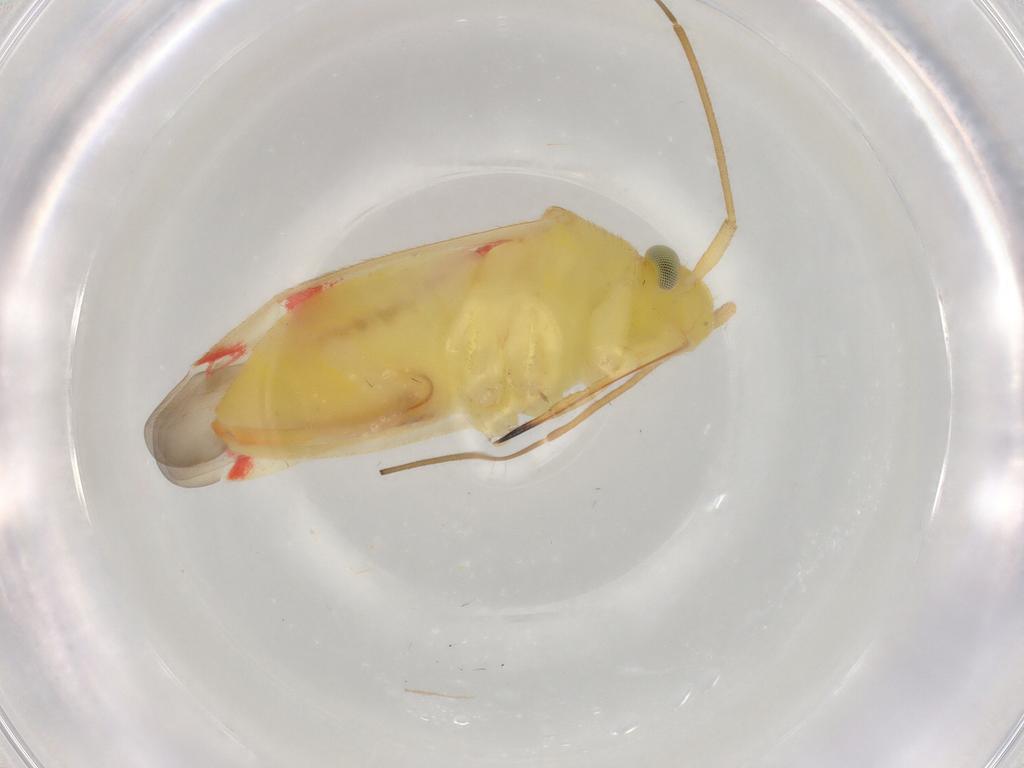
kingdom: Animalia
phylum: Arthropoda
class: Insecta
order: Hemiptera
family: Miridae
